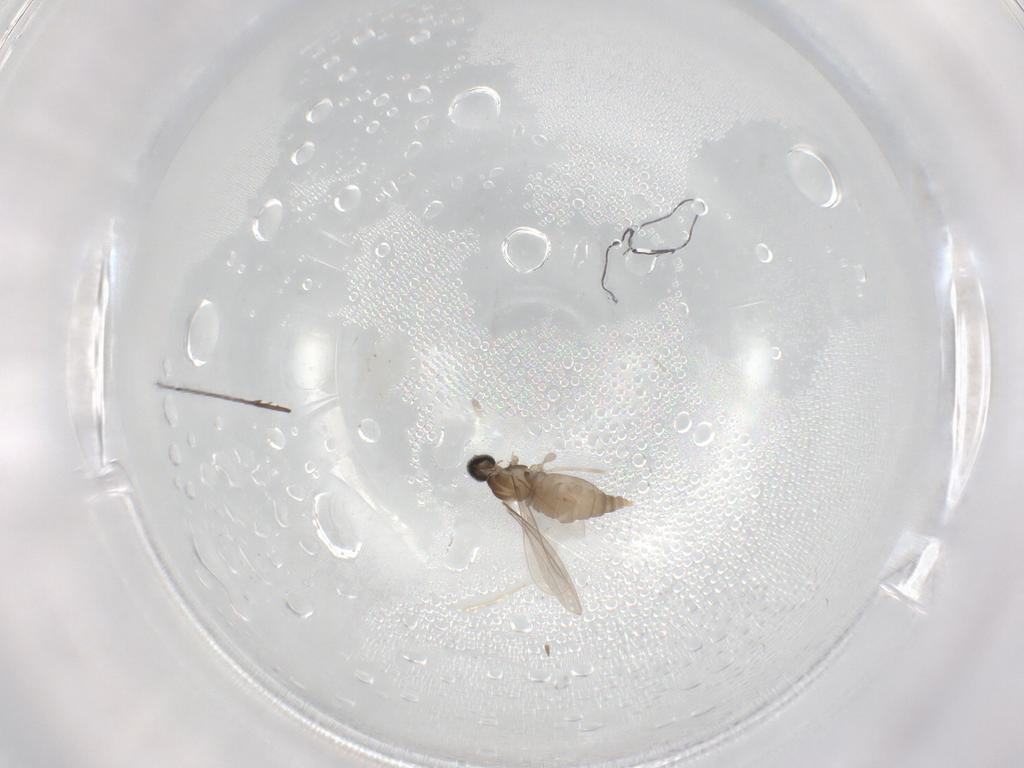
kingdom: Animalia
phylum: Arthropoda
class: Insecta
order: Diptera
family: Cecidomyiidae
